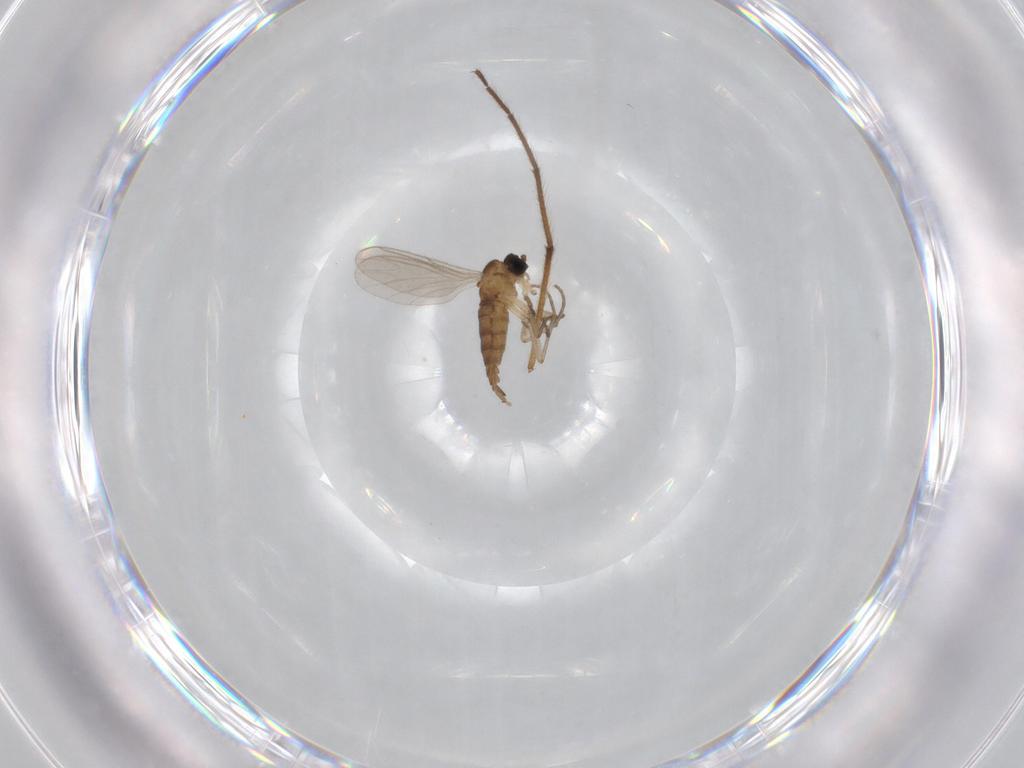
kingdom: Animalia
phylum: Arthropoda
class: Insecta
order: Diptera
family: Sciaridae
